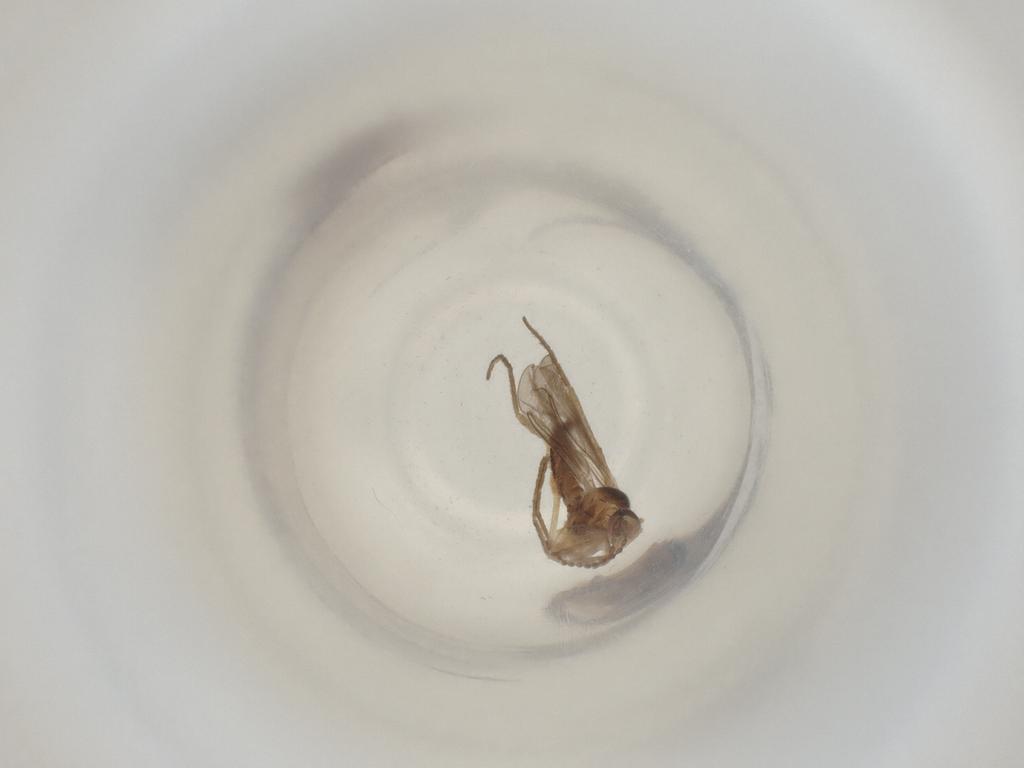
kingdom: Animalia
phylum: Arthropoda
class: Insecta
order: Diptera
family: Cecidomyiidae
